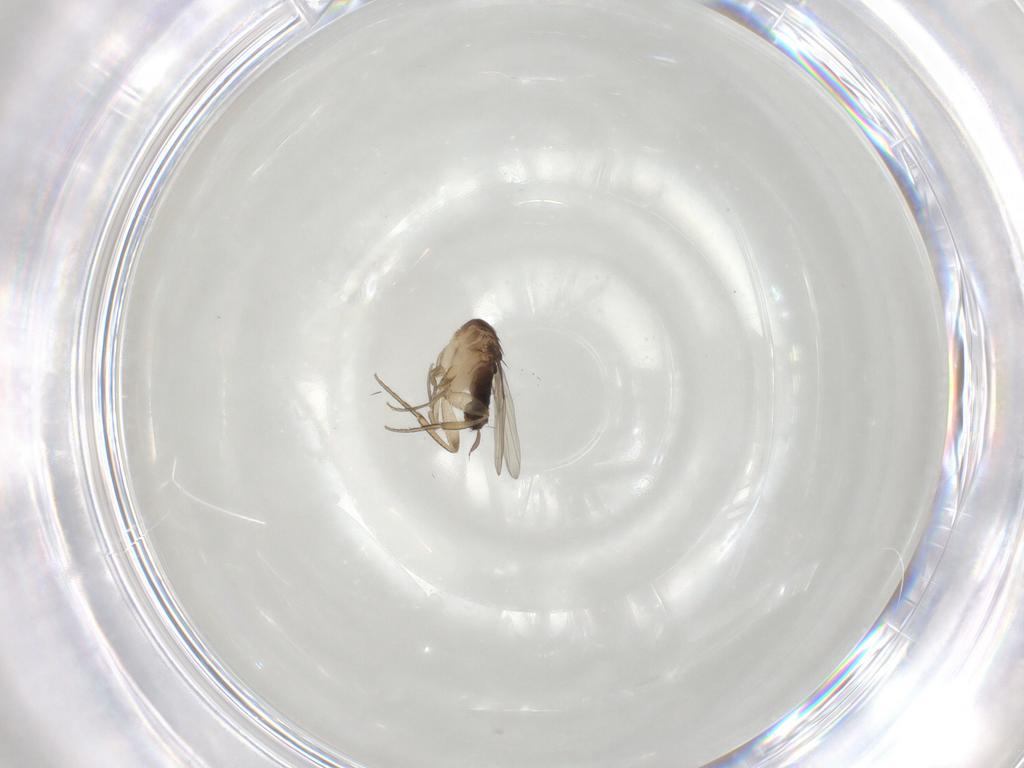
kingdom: Animalia
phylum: Arthropoda
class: Insecta
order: Diptera
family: Phoridae
